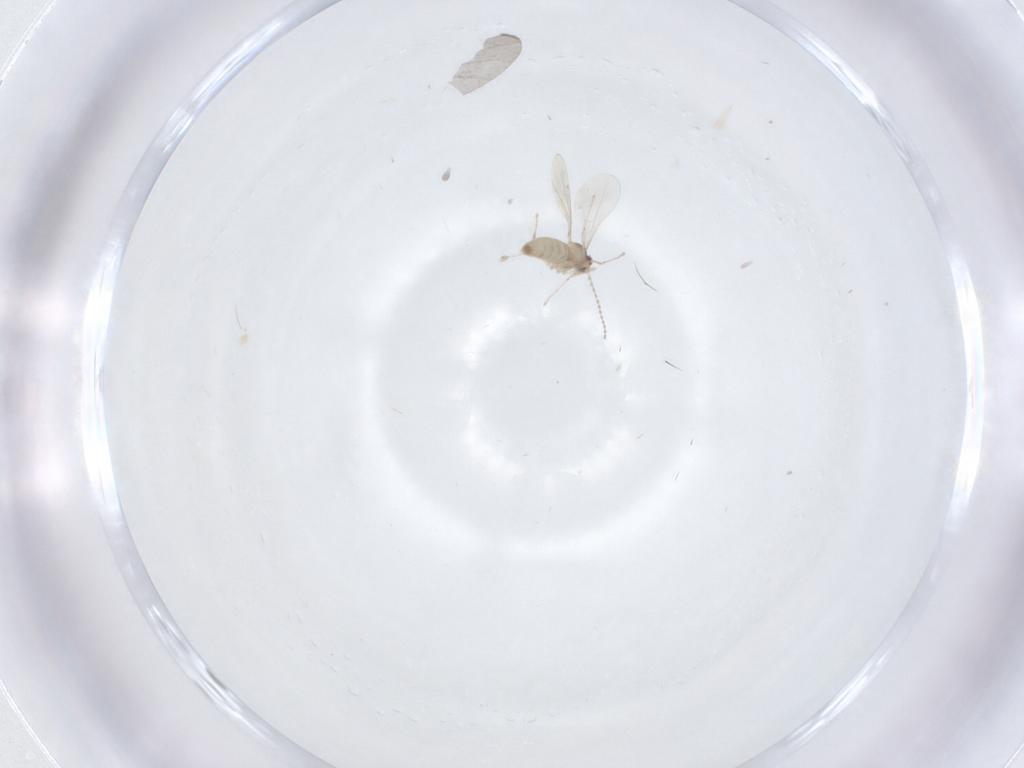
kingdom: Animalia
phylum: Arthropoda
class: Insecta
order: Diptera
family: Cecidomyiidae
